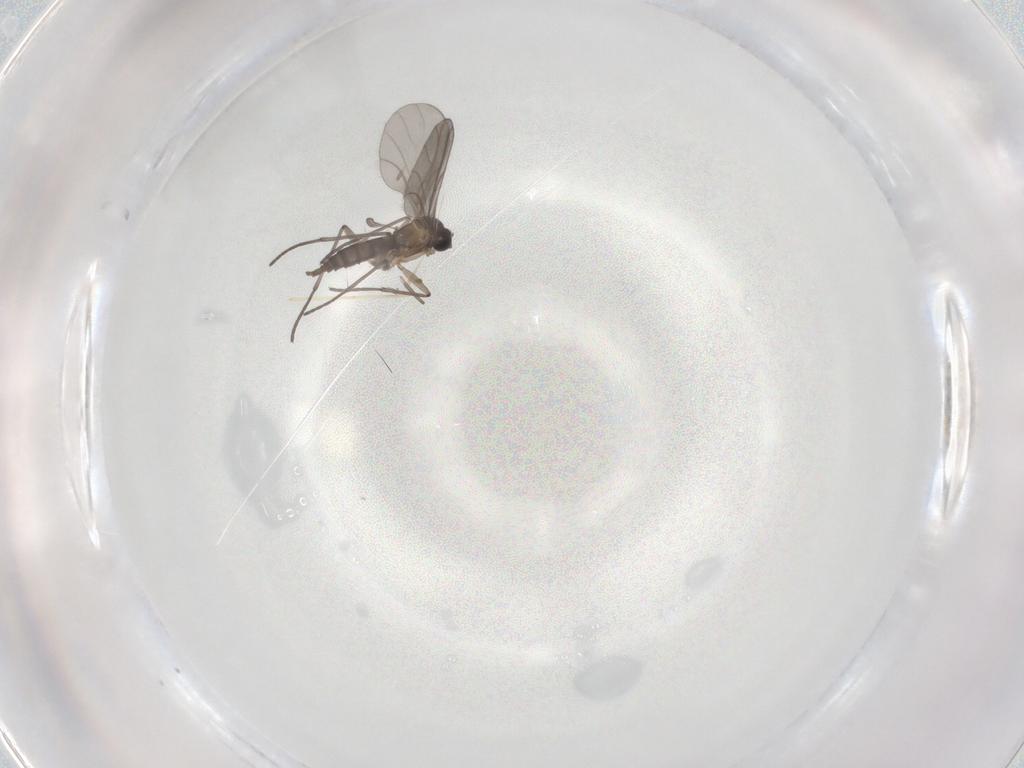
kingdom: Animalia
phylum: Arthropoda
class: Insecta
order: Diptera
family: Sciaridae
